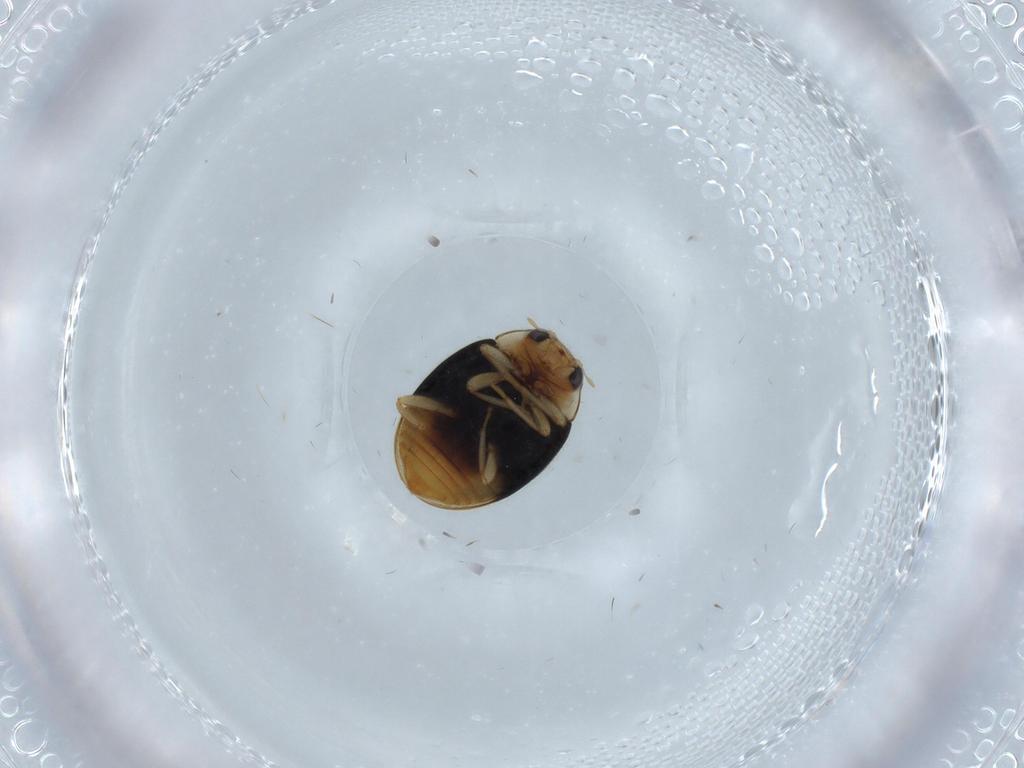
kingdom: Animalia
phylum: Arthropoda
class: Insecta
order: Coleoptera
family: Coccinellidae
